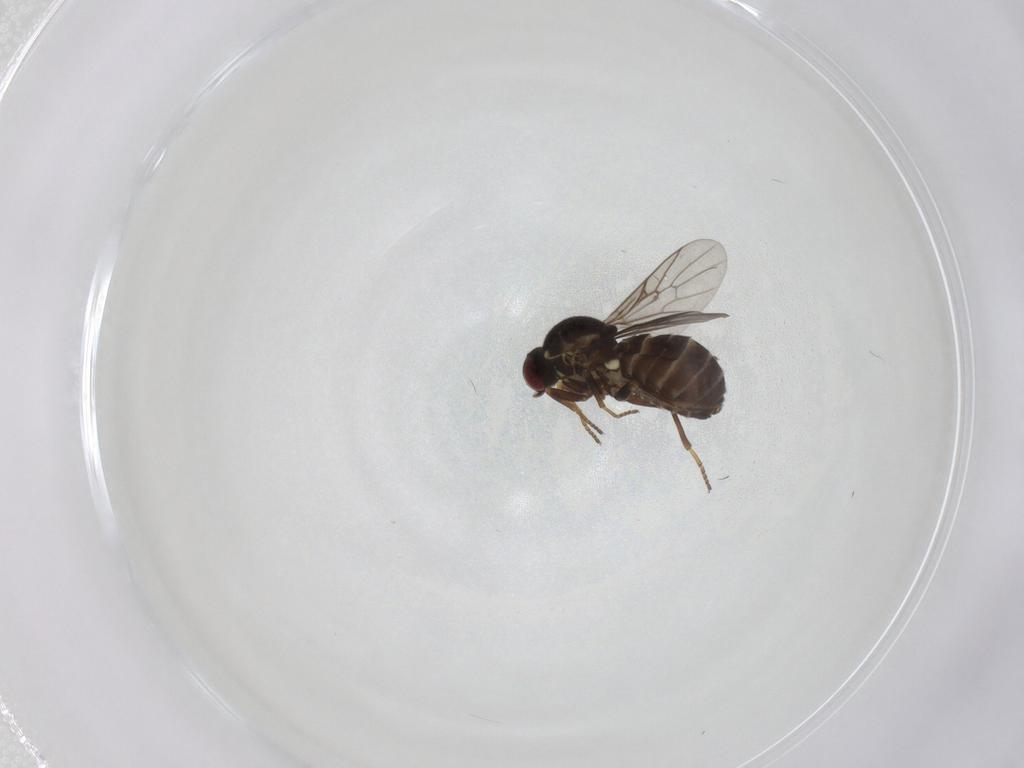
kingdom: Animalia
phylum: Arthropoda
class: Insecta
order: Diptera
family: Bombyliidae
